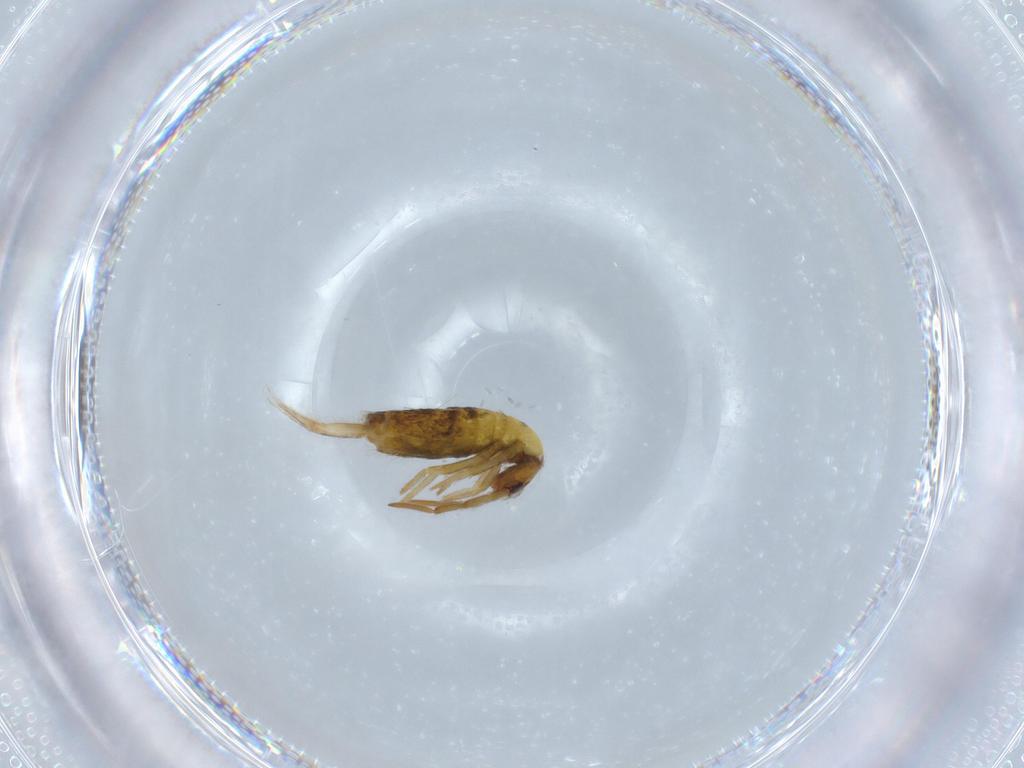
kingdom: Animalia
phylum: Arthropoda
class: Collembola
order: Entomobryomorpha
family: Entomobryidae
